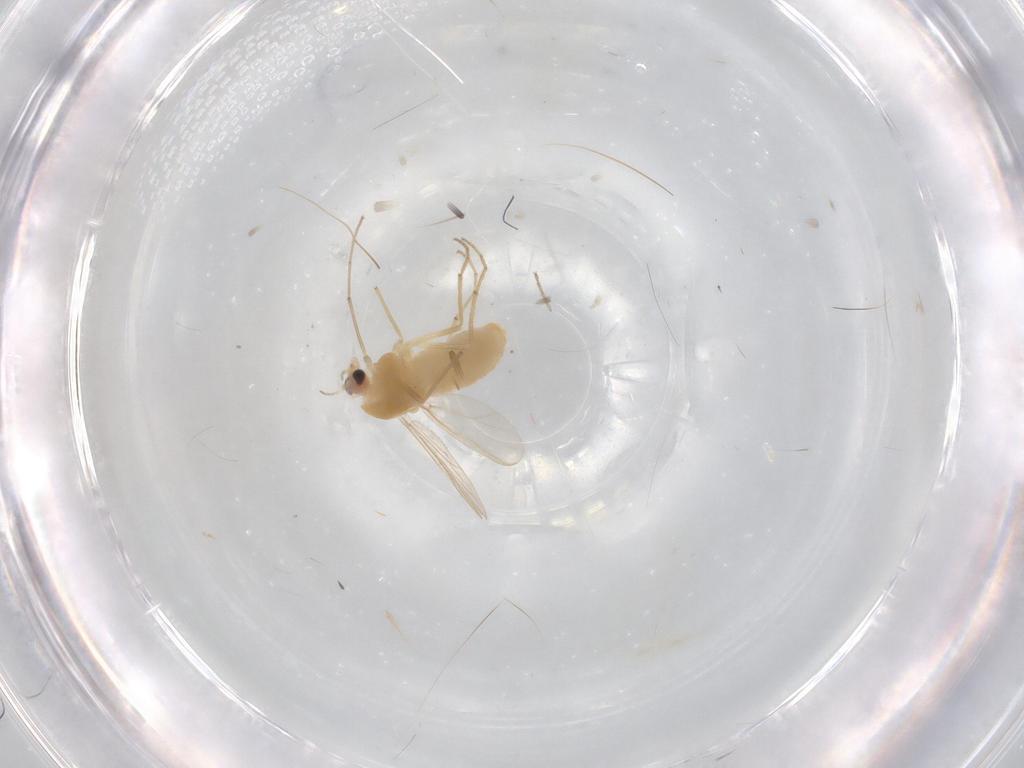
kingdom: Animalia
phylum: Arthropoda
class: Insecta
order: Diptera
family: Chironomidae
